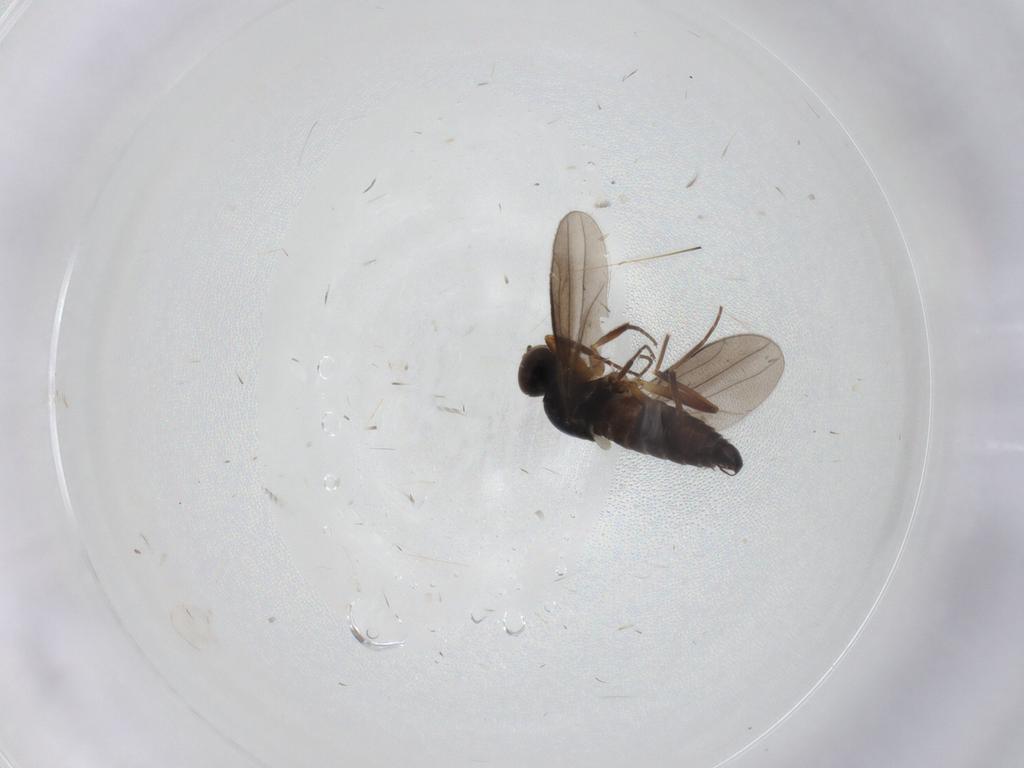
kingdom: Animalia
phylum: Arthropoda
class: Insecta
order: Diptera
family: Hybotidae
